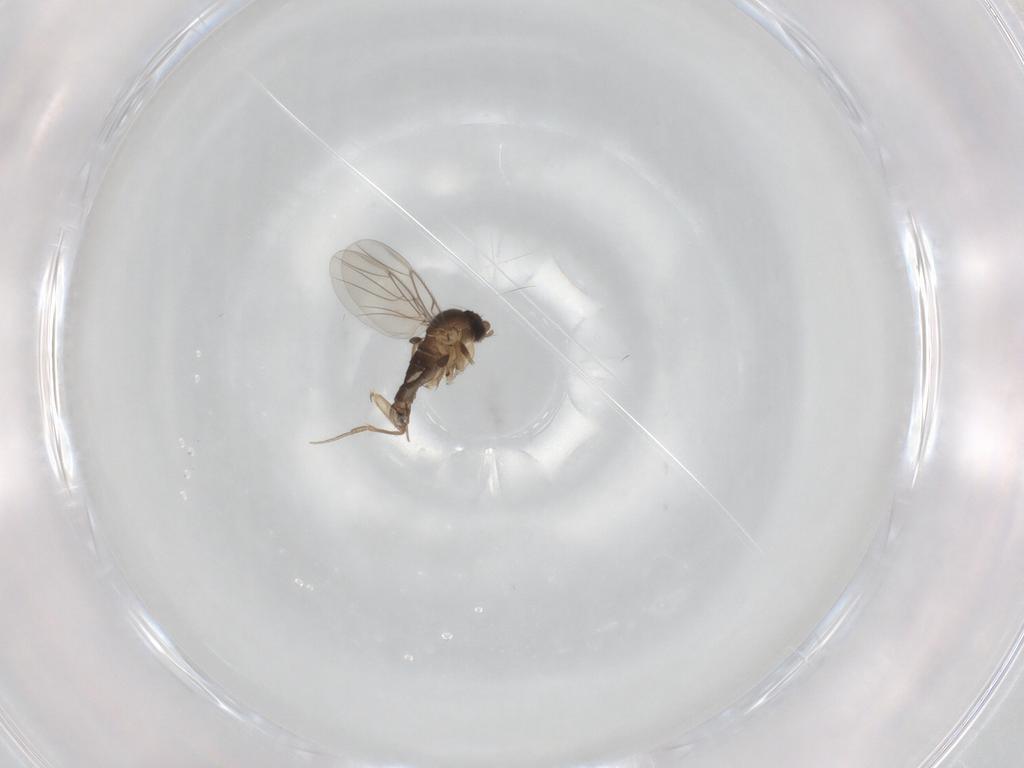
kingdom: Animalia
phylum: Arthropoda
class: Insecta
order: Diptera
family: Phoridae
